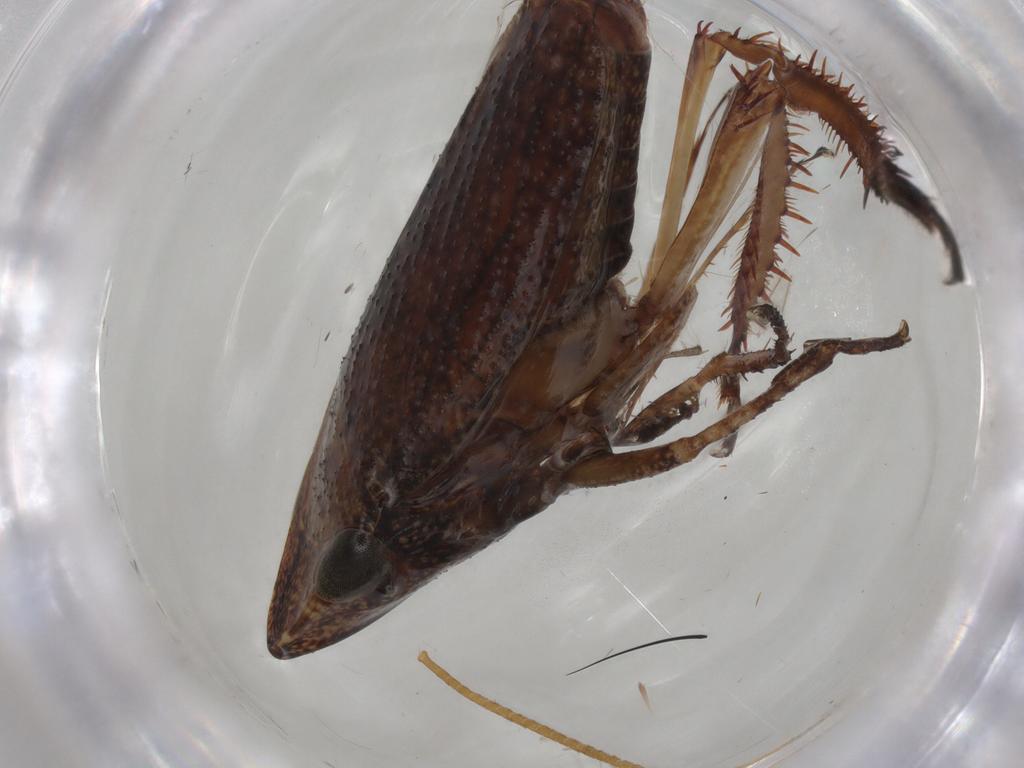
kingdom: Animalia
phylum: Arthropoda
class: Insecta
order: Hemiptera
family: Cicadellidae
